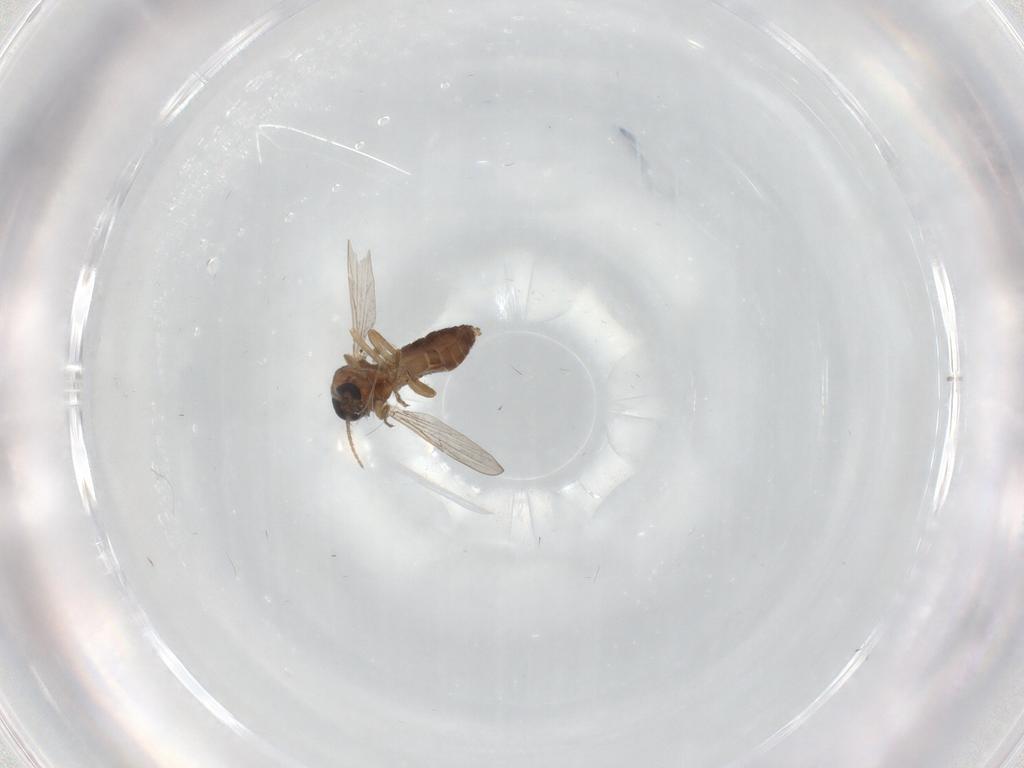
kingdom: Animalia
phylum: Arthropoda
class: Insecta
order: Diptera
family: Ceratopogonidae
